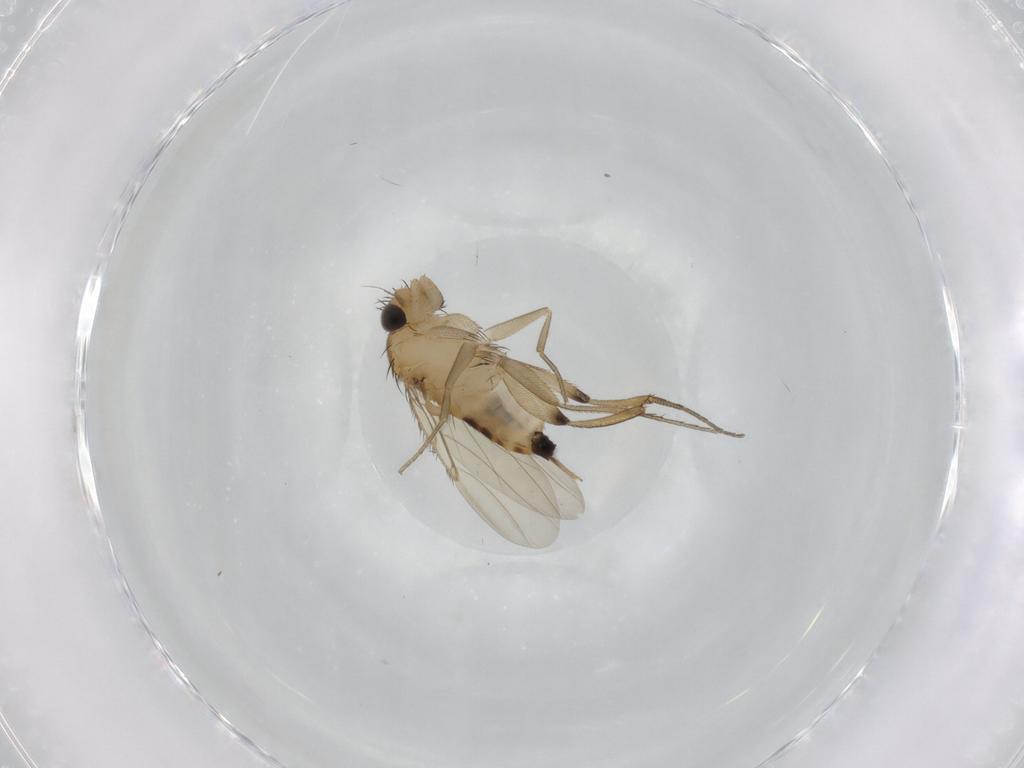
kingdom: Animalia
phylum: Arthropoda
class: Insecta
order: Diptera
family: Phoridae
